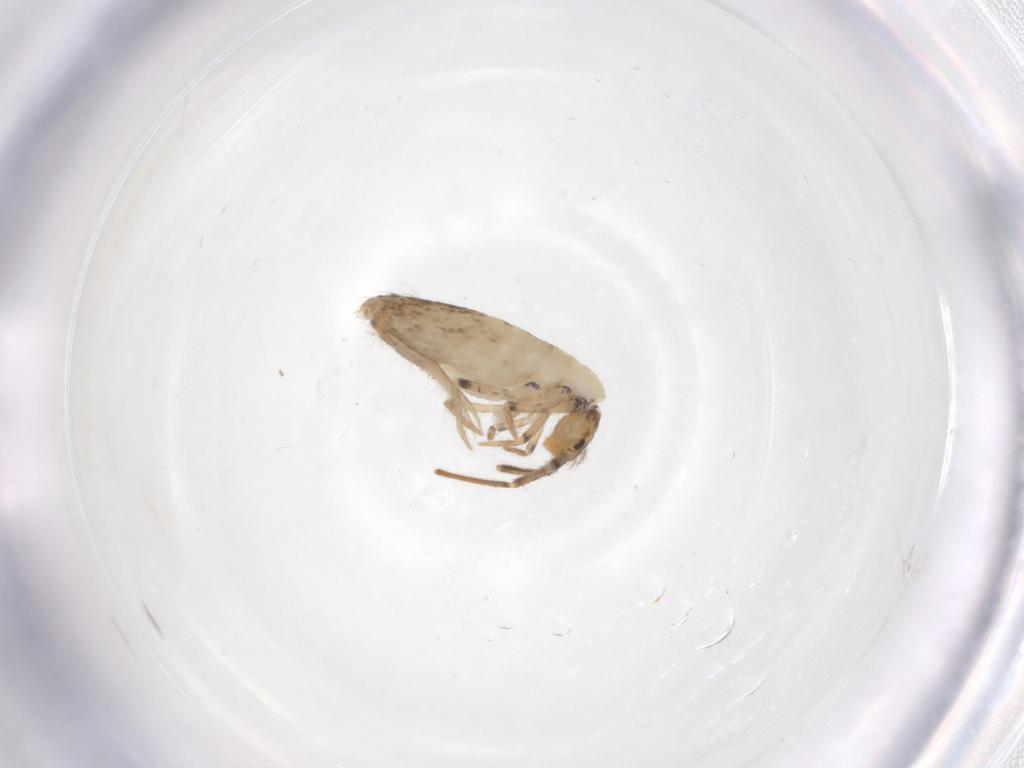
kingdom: Animalia
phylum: Arthropoda
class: Collembola
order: Entomobryomorpha
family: Entomobryidae
